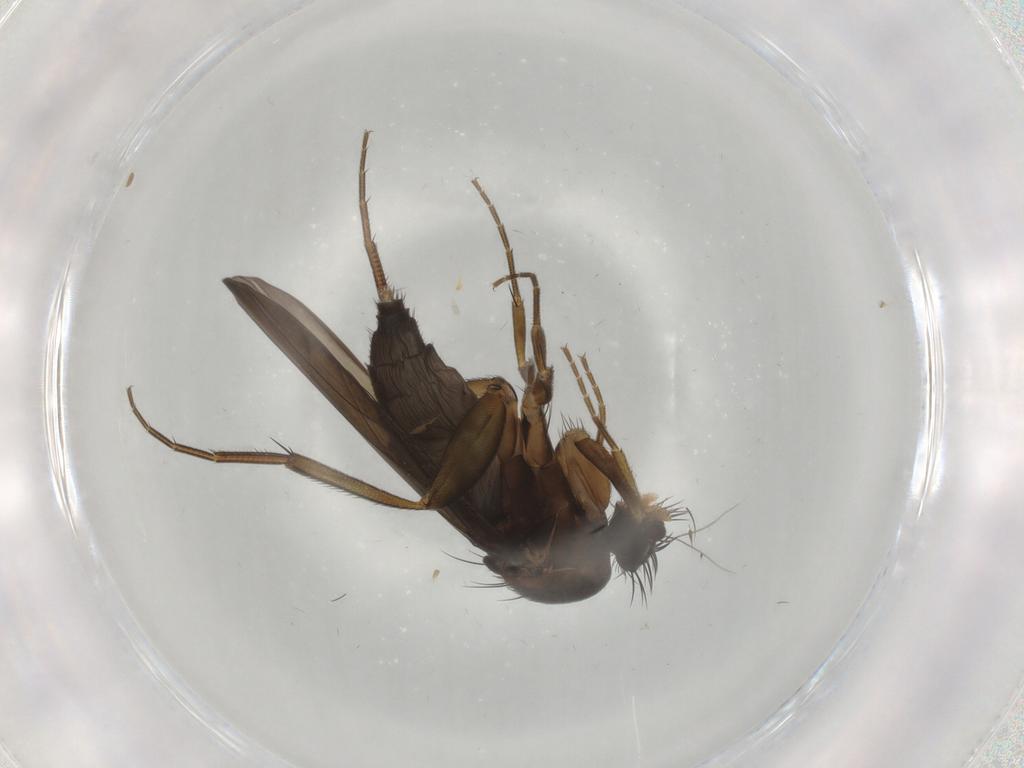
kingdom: Animalia
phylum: Arthropoda
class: Insecta
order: Diptera
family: Phoridae
